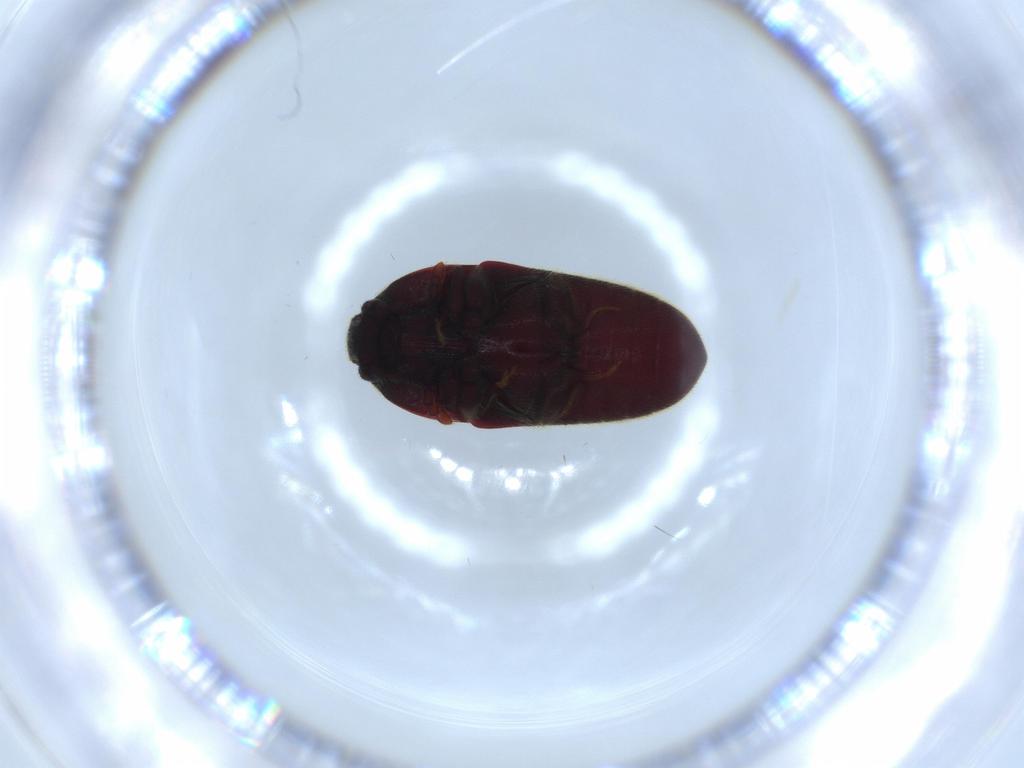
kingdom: Animalia
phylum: Arthropoda
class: Insecta
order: Coleoptera
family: Throscidae
